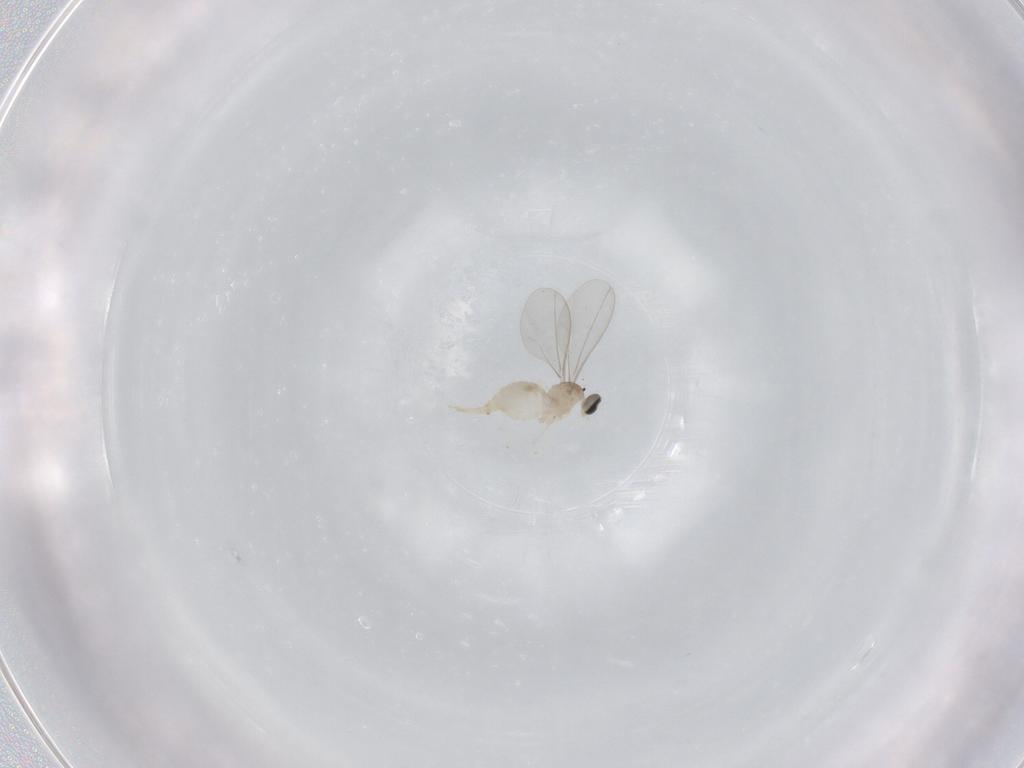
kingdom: Animalia
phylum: Arthropoda
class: Insecta
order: Diptera
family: Cecidomyiidae
